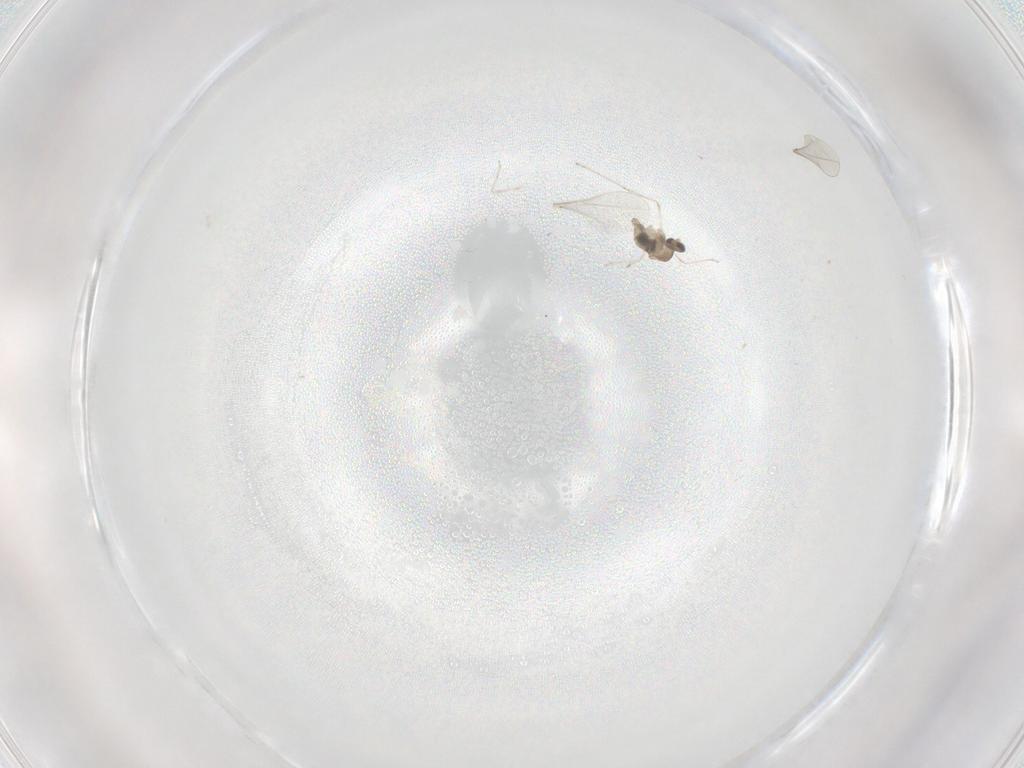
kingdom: Animalia
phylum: Arthropoda
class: Insecta
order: Diptera
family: Cecidomyiidae
